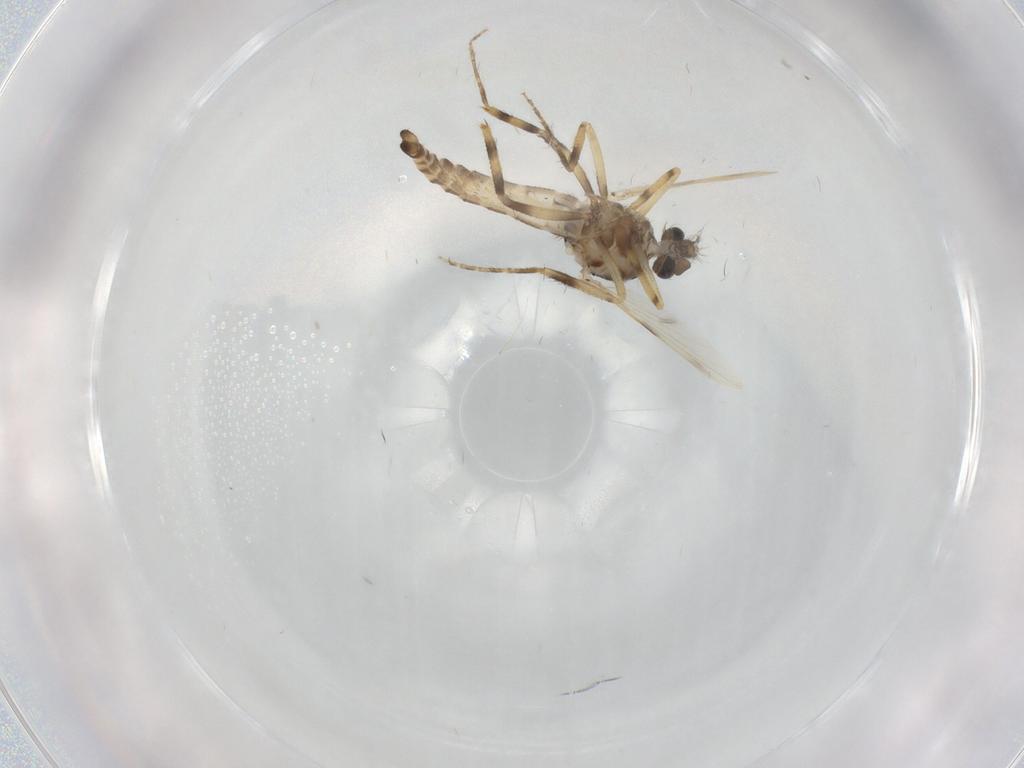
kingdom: Animalia
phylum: Arthropoda
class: Insecta
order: Diptera
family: Ceratopogonidae
